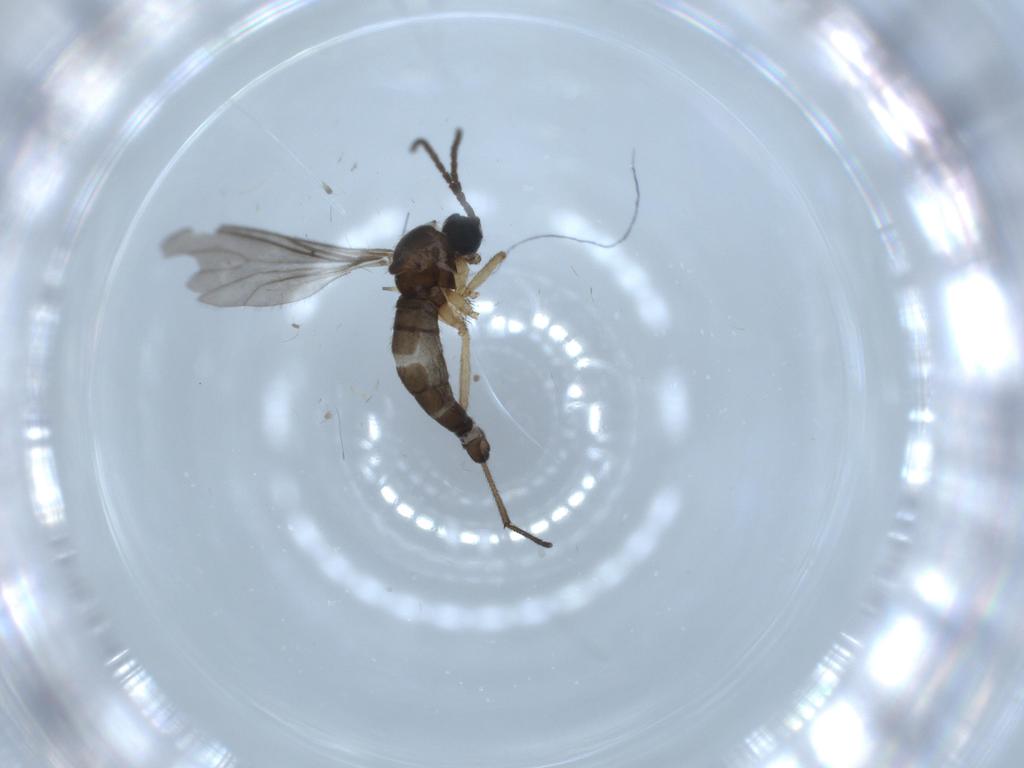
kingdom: Animalia
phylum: Arthropoda
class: Insecta
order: Diptera
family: Sciaridae
